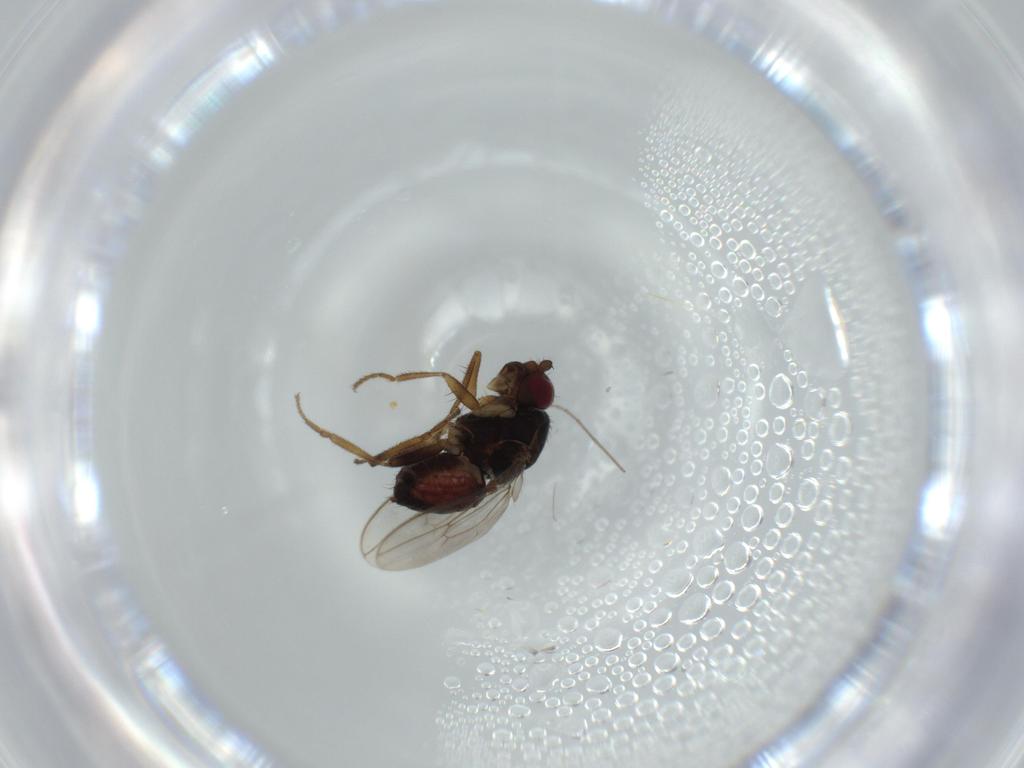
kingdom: Animalia
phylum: Arthropoda
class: Insecta
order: Diptera
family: Sphaeroceridae
